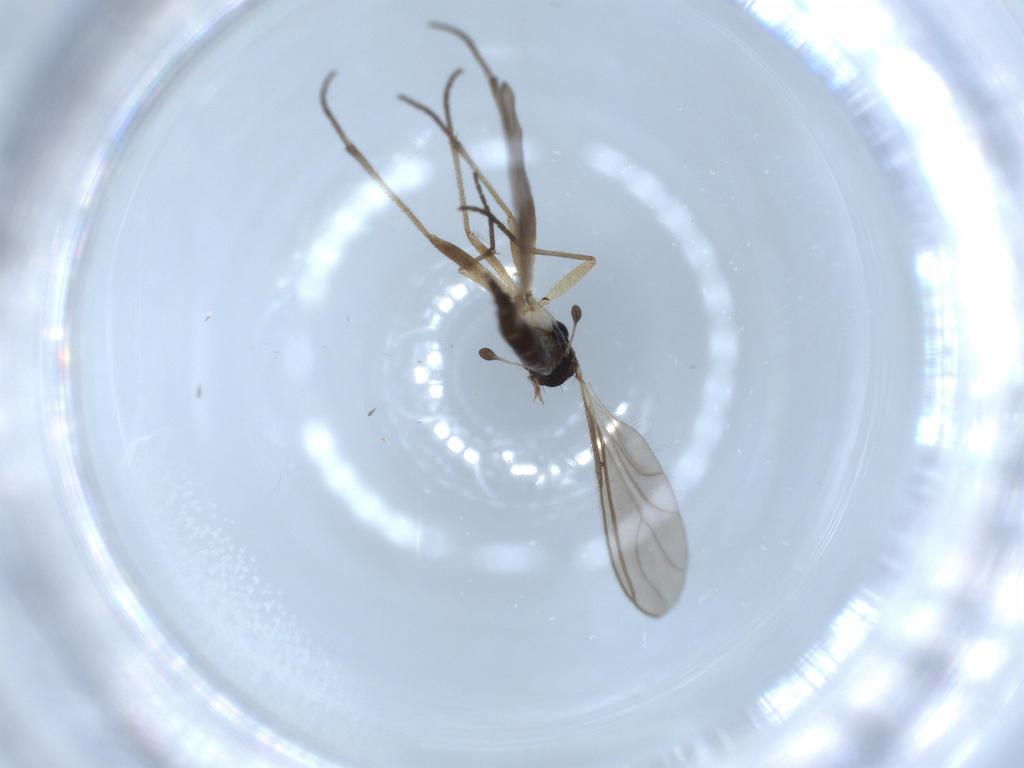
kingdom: Animalia
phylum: Arthropoda
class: Insecta
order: Diptera
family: Sciaridae
